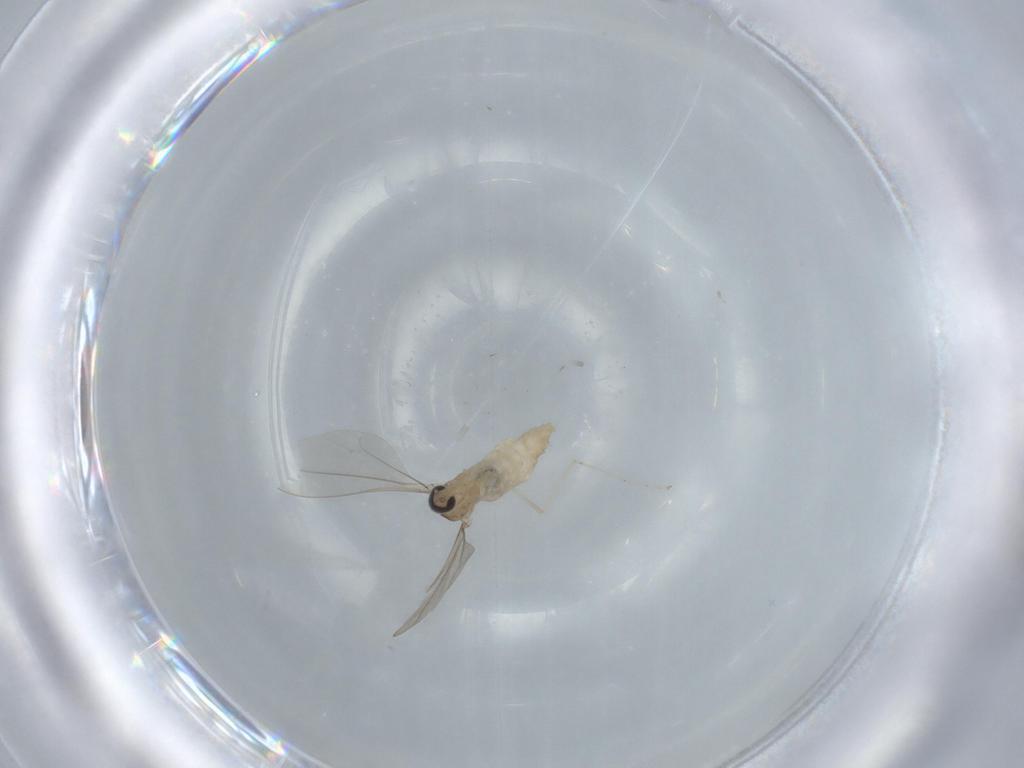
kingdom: Animalia
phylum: Arthropoda
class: Insecta
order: Diptera
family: Cecidomyiidae
